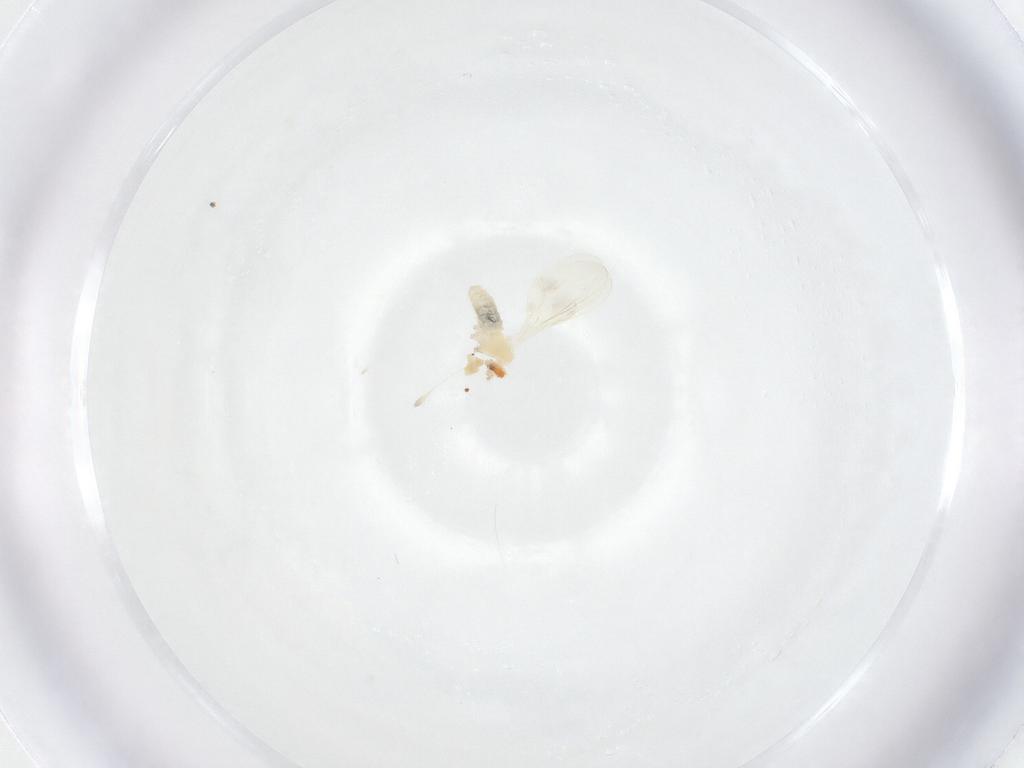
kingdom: Animalia
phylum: Arthropoda
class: Insecta
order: Diptera
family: Cecidomyiidae
